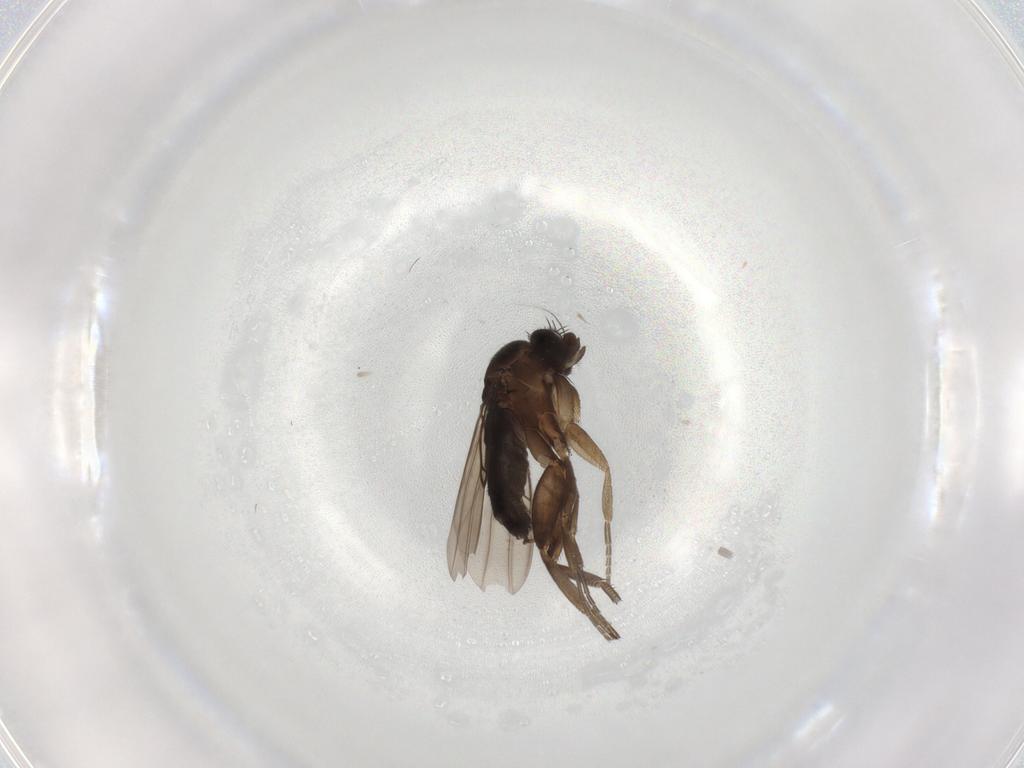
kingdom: Animalia
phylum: Arthropoda
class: Insecta
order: Diptera
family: Phoridae
